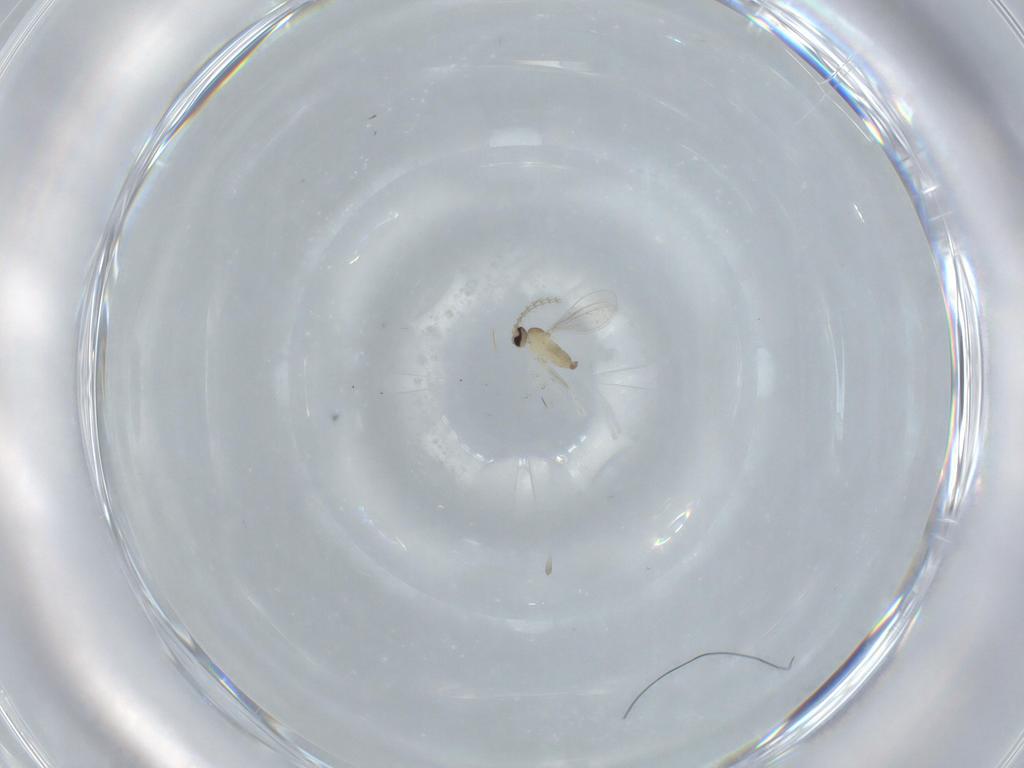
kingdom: Animalia
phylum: Arthropoda
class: Insecta
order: Diptera
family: Cecidomyiidae
